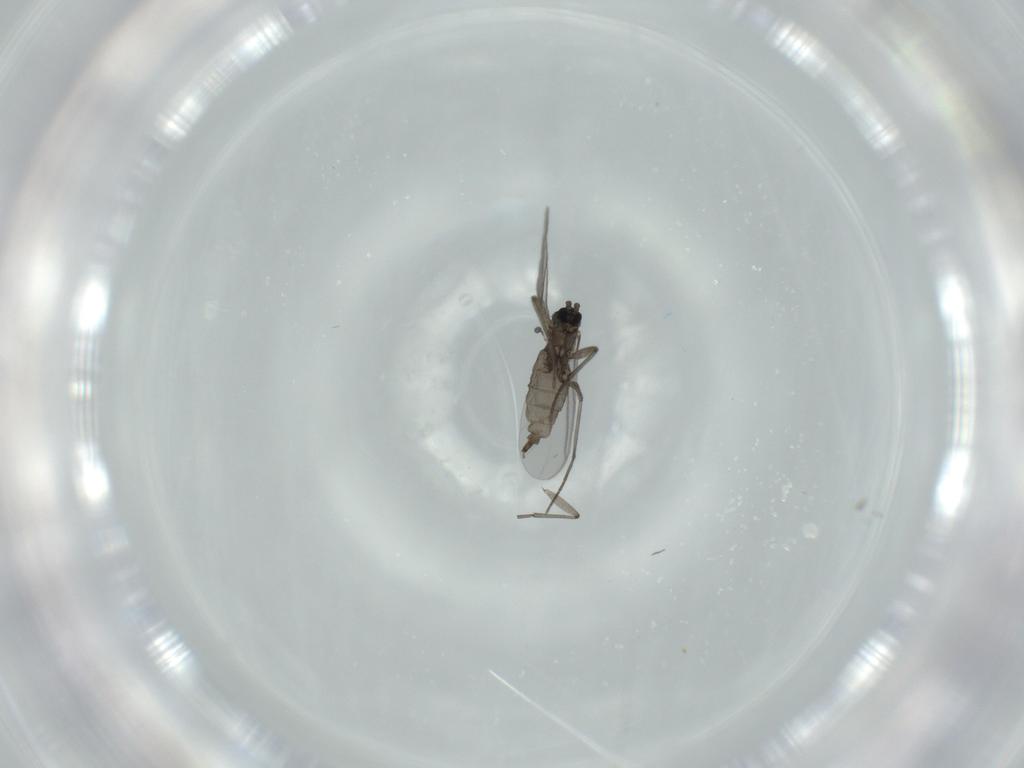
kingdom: Animalia
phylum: Arthropoda
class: Insecta
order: Diptera
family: Sciaridae
